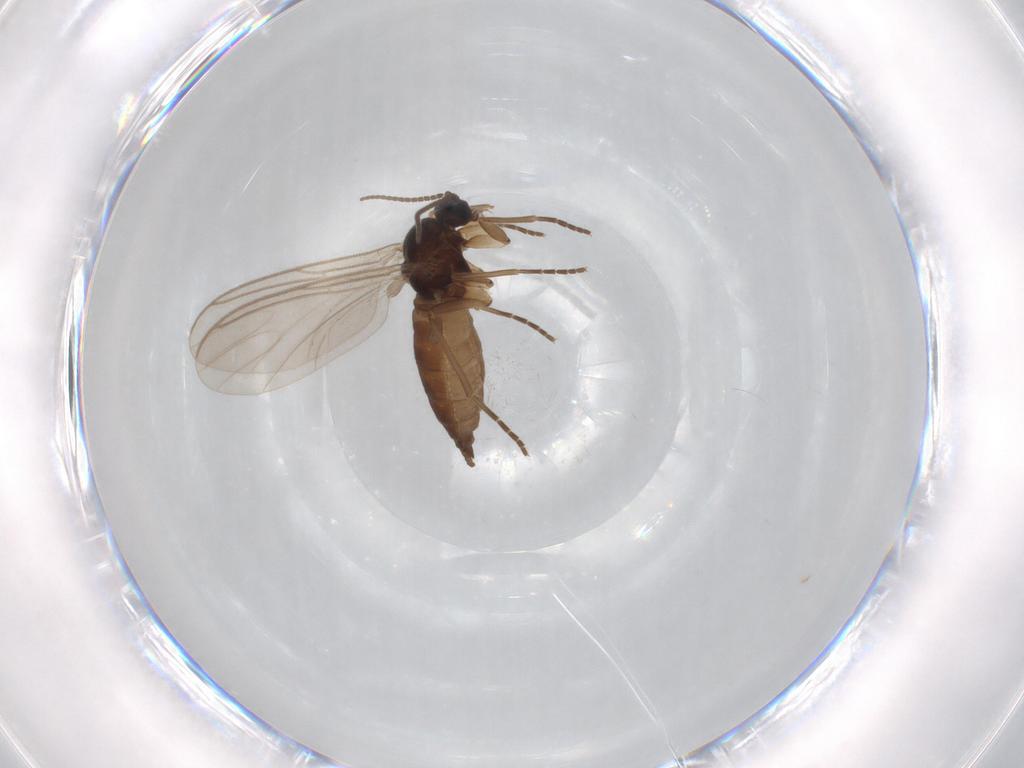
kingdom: Animalia
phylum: Arthropoda
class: Insecta
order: Diptera
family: Sciaridae
